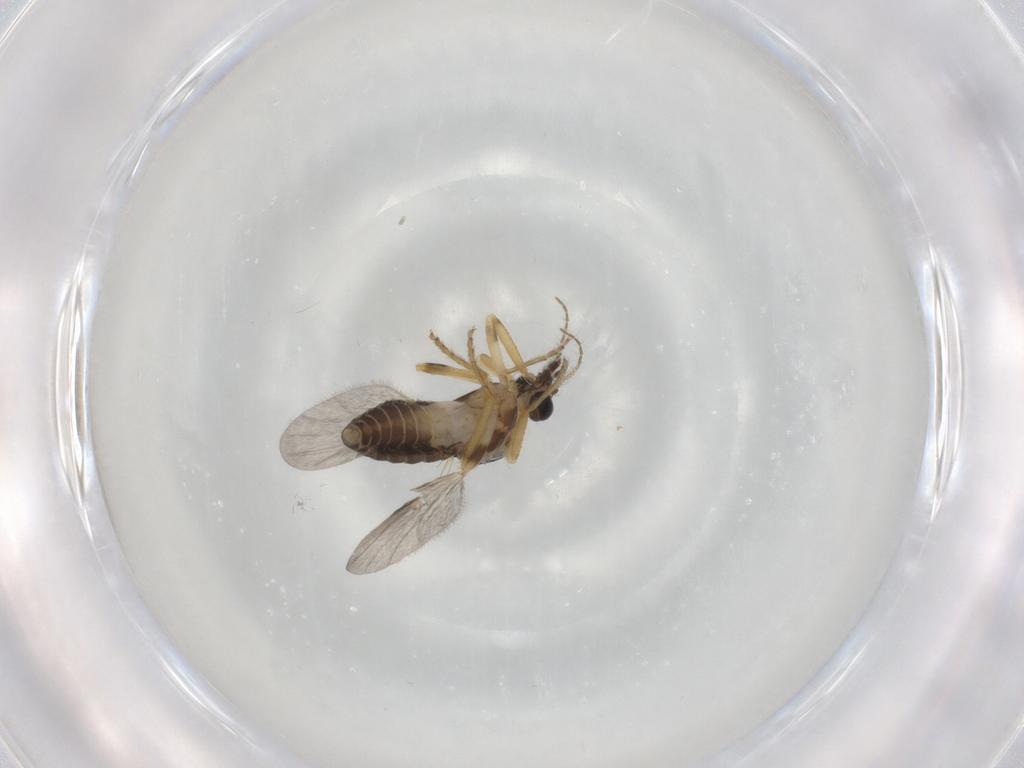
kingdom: Animalia
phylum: Arthropoda
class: Insecta
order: Diptera
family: Ceratopogonidae
